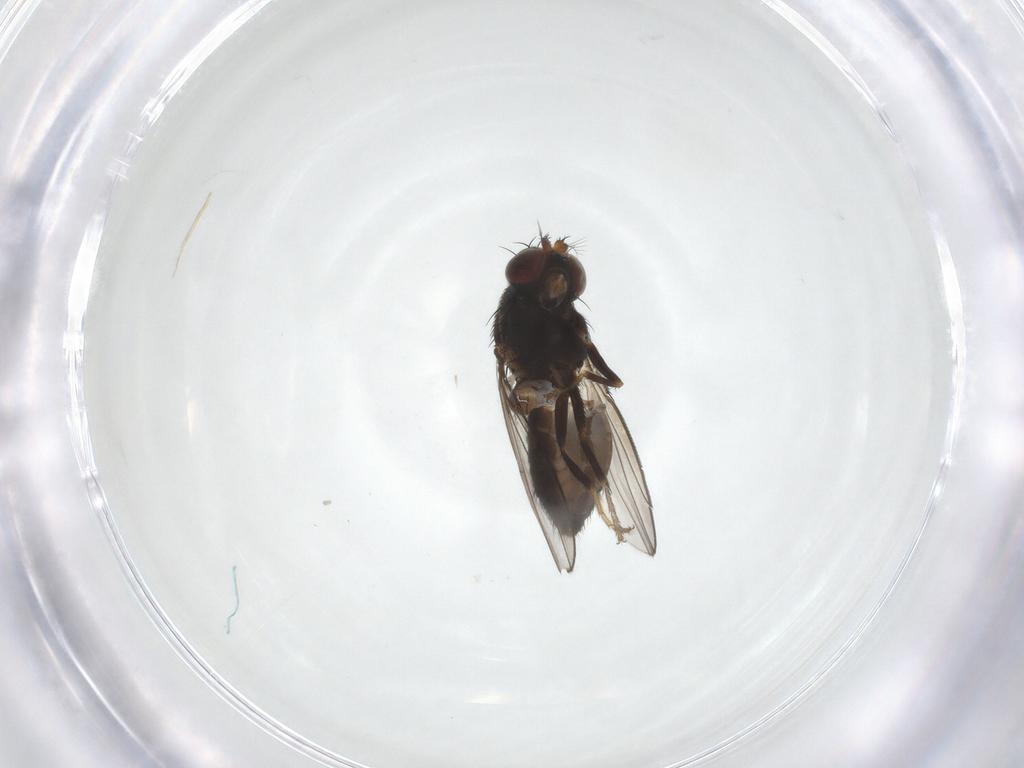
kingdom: Animalia
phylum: Arthropoda
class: Insecta
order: Diptera
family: Ephydridae
